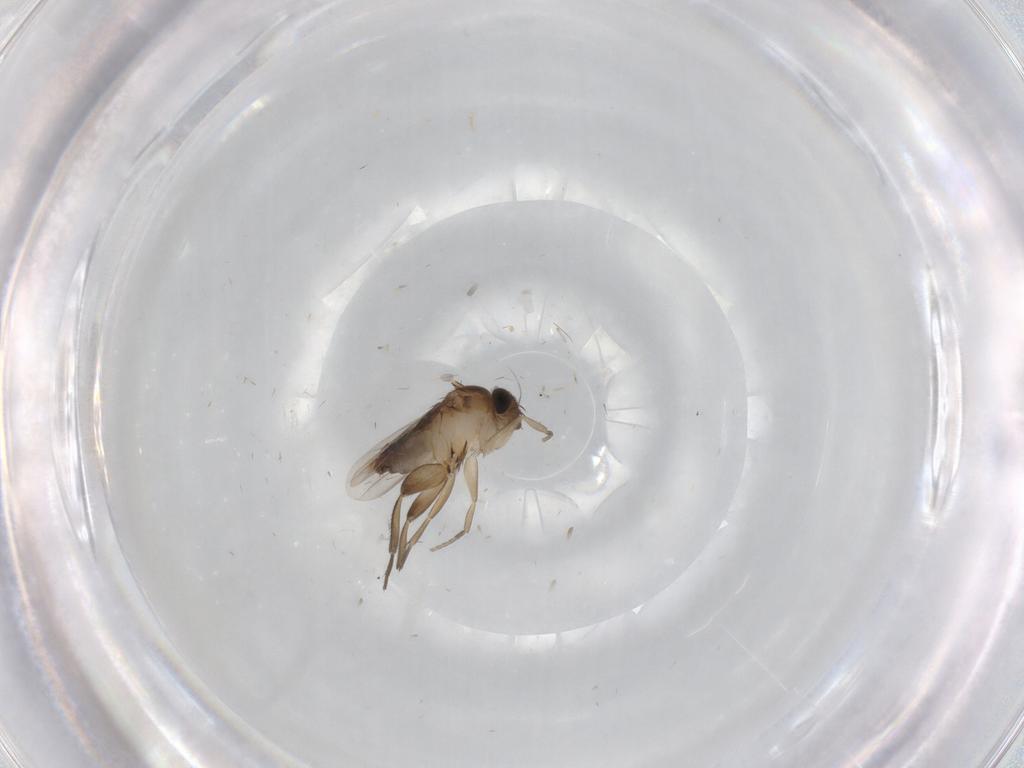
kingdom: Animalia
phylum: Arthropoda
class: Insecta
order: Diptera
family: Phoridae
